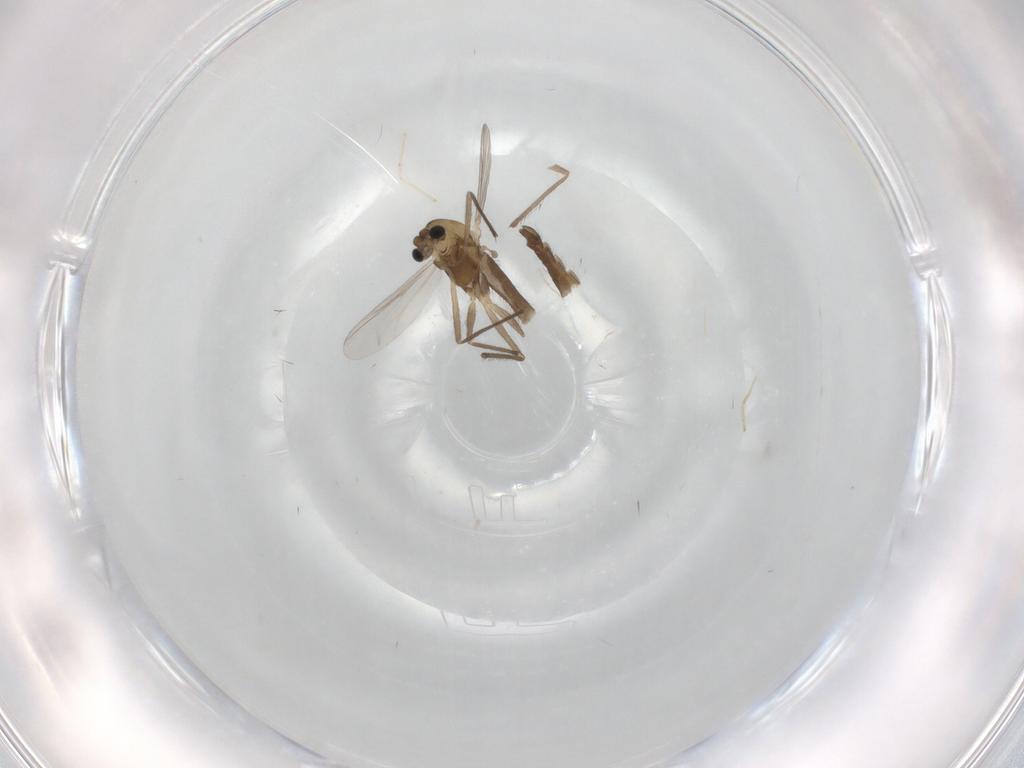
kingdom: Animalia
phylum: Arthropoda
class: Insecta
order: Diptera
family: Chironomidae
